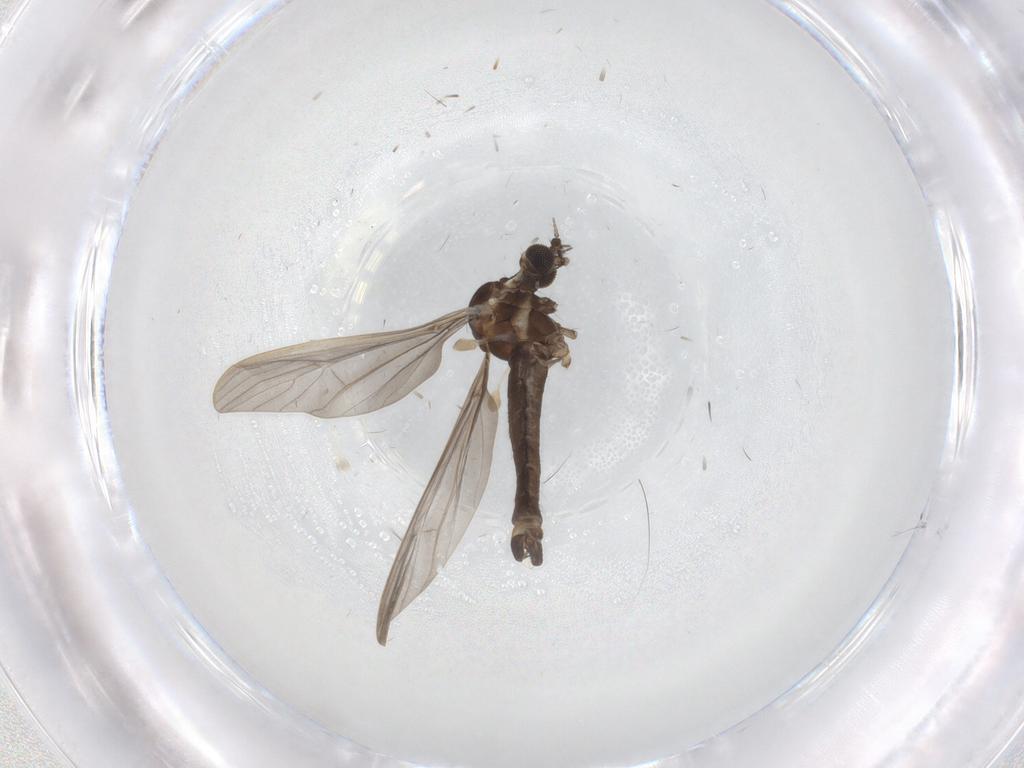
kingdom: Animalia
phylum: Arthropoda
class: Insecta
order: Diptera
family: Limoniidae
